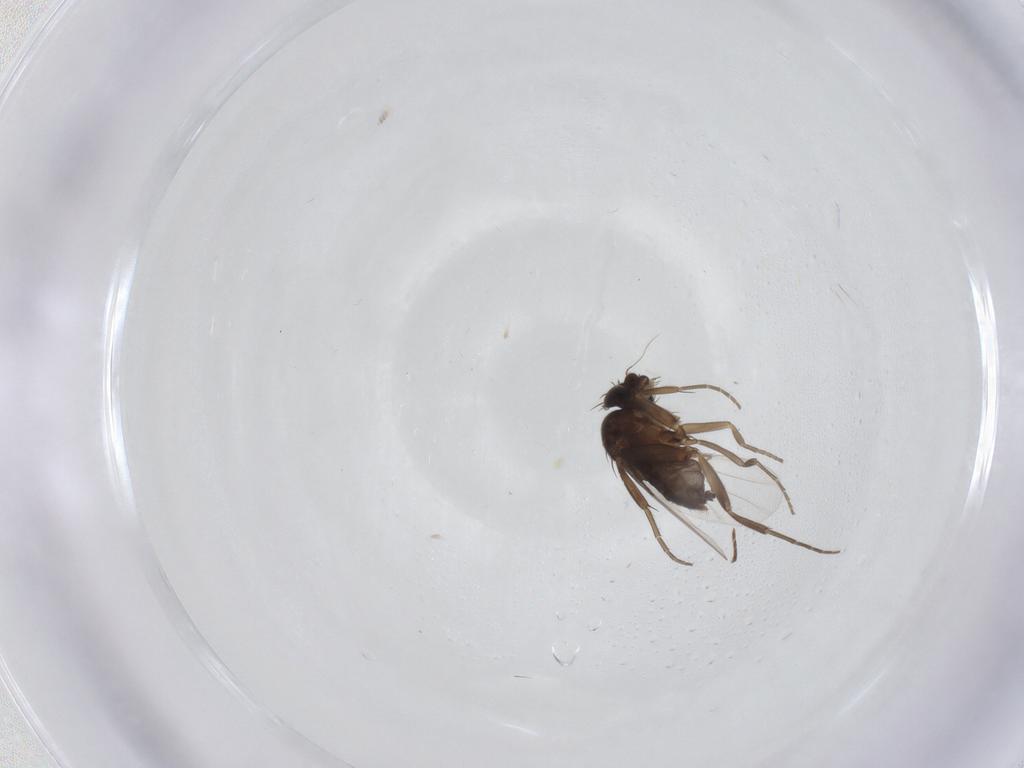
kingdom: Animalia
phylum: Arthropoda
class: Insecta
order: Diptera
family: Phoridae
